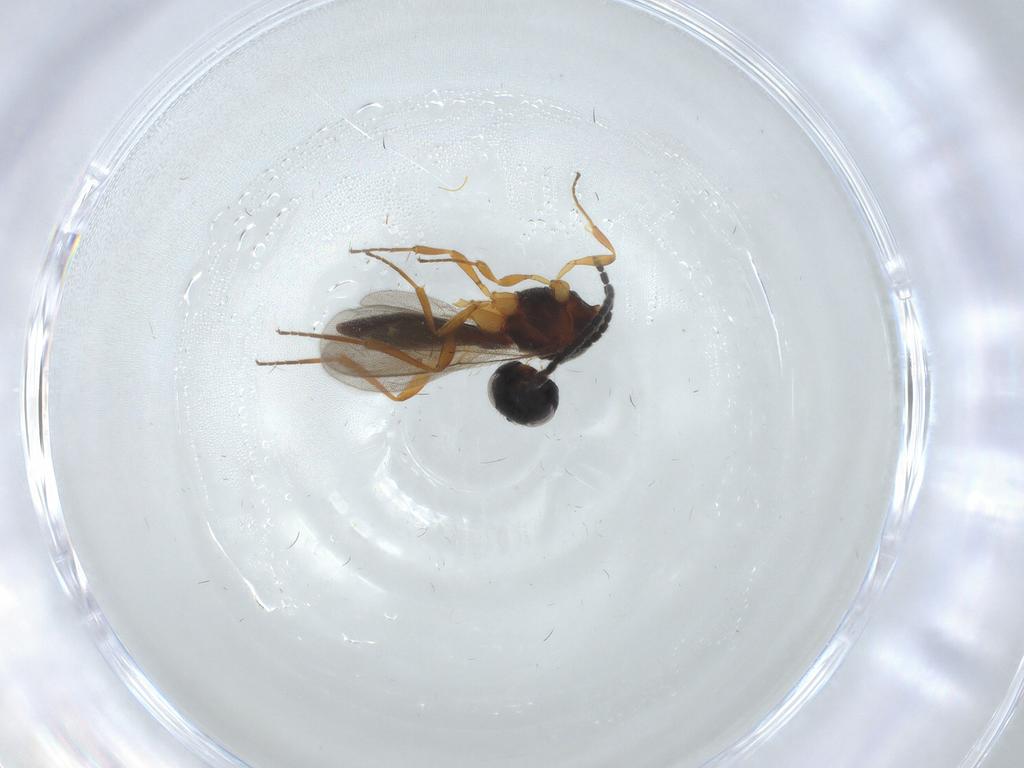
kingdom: Animalia
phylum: Arthropoda
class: Insecta
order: Hymenoptera
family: Scelionidae
